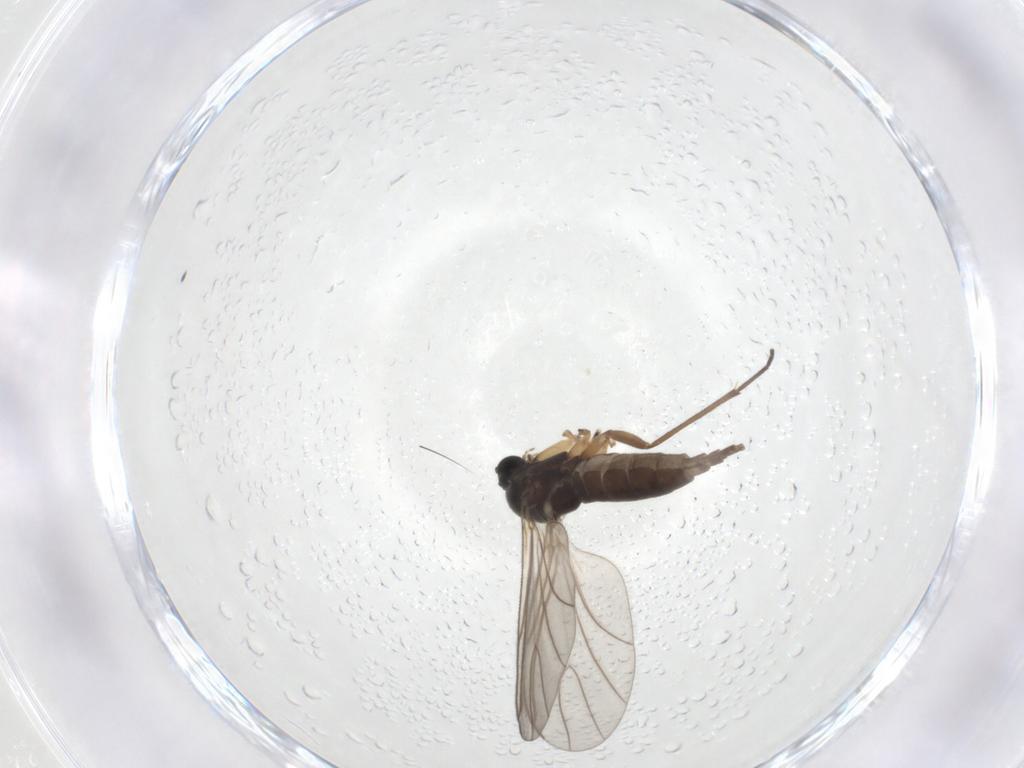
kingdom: Animalia
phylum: Arthropoda
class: Insecta
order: Diptera
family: Sciaridae
